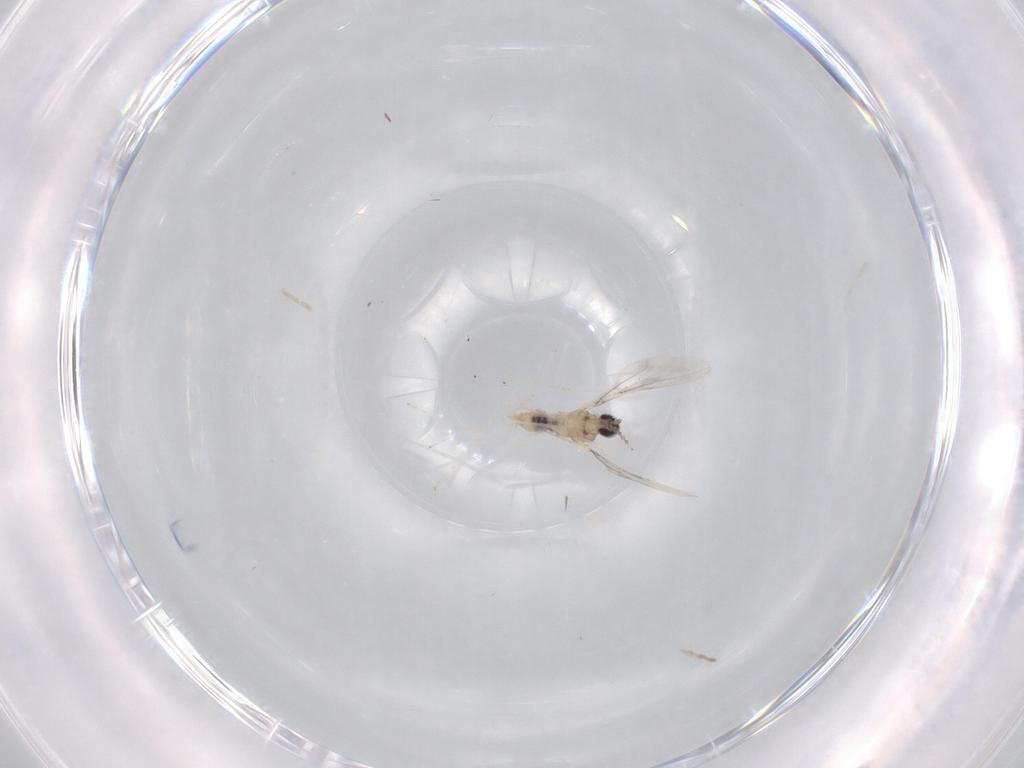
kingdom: Animalia
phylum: Arthropoda
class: Insecta
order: Diptera
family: Cecidomyiidae
